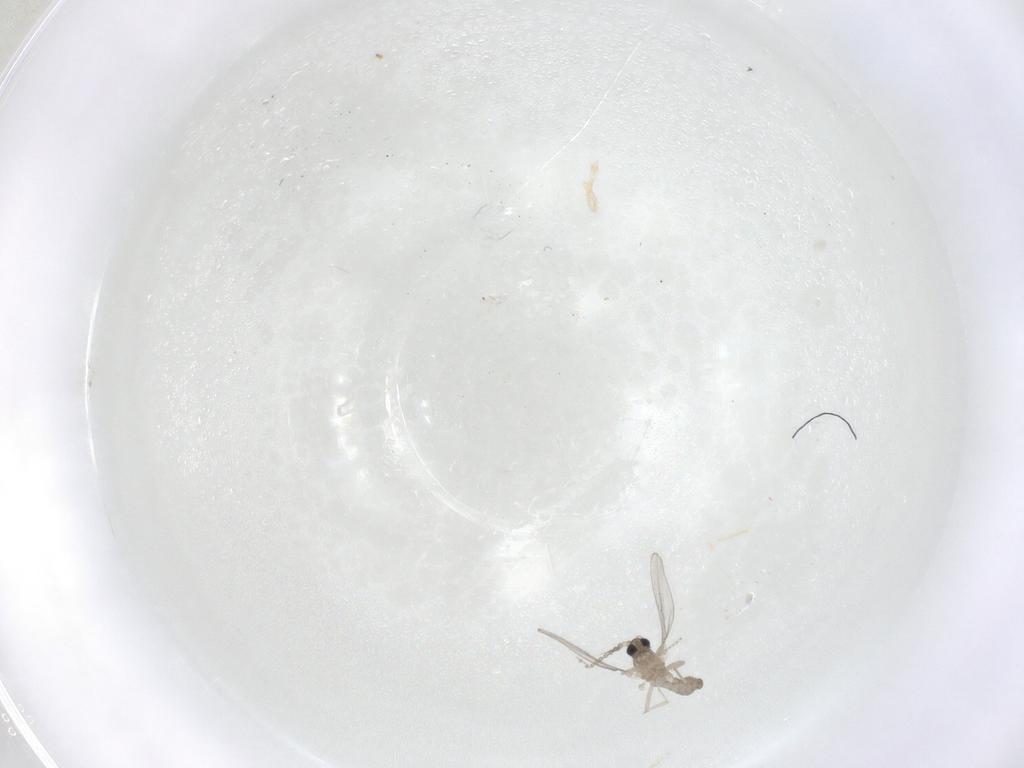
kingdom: Animalia
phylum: Arthropoda
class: Insecta
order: Diptera
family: Cecidomyiidae
